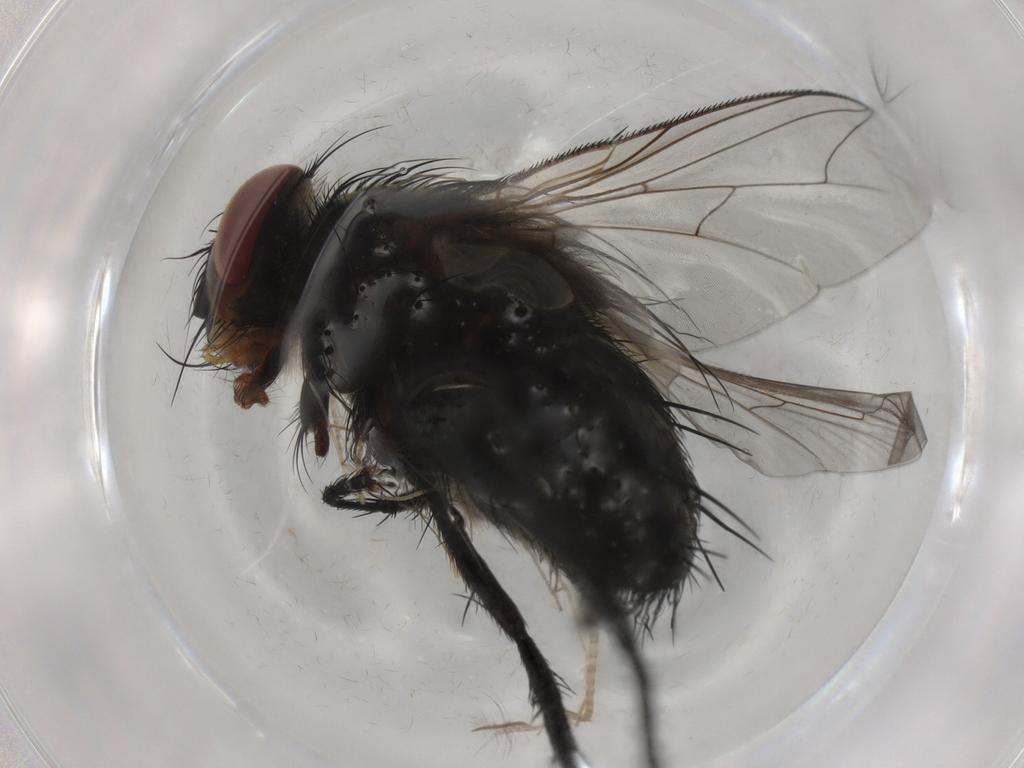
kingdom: Animalia
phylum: Arthropoda
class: Insecta
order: Diptera
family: Tachinidae
